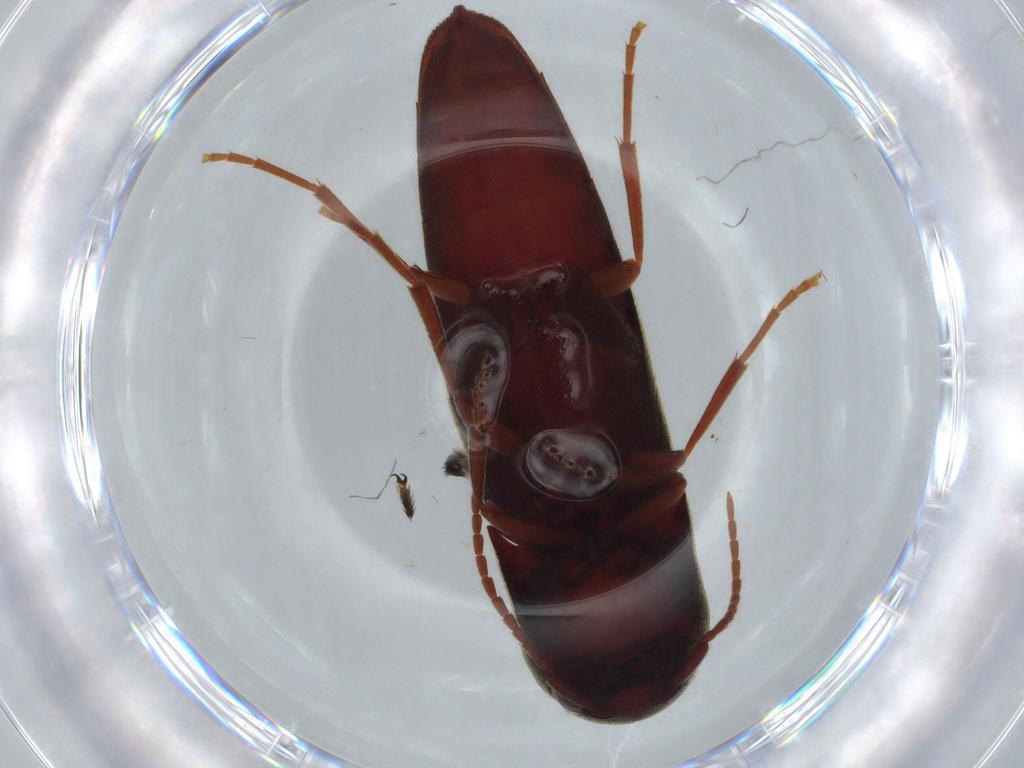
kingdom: Animalia
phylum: Arthropoda
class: Insecta
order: Coleoptera
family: Eucnemidae
